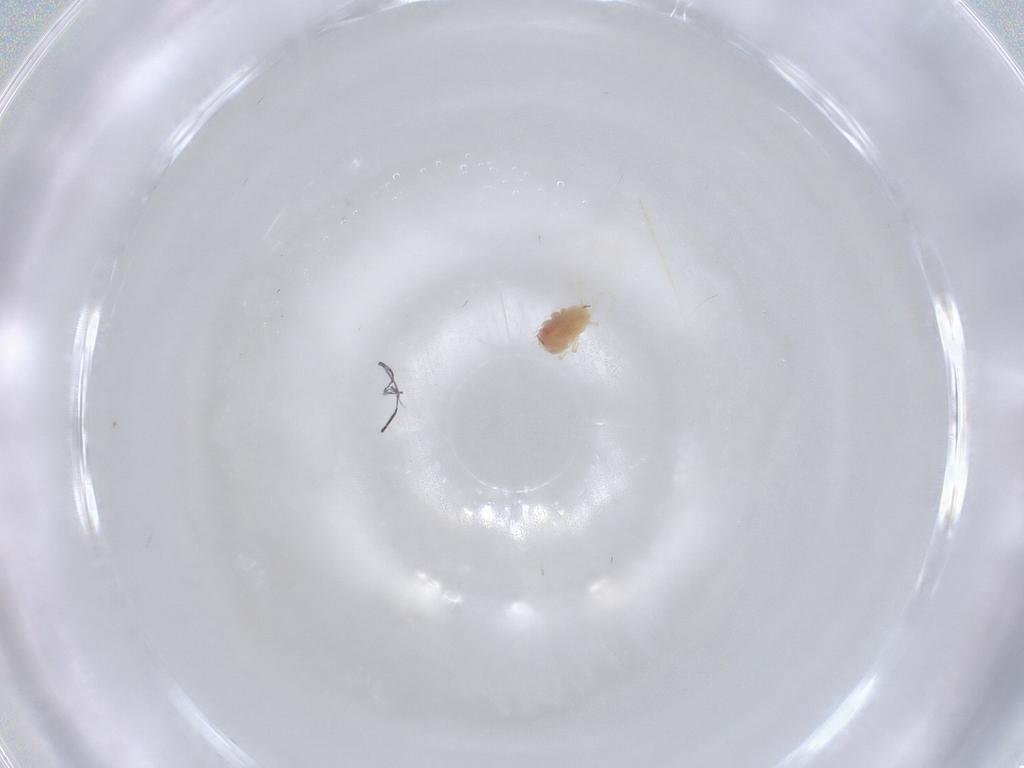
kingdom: Animalia
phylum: Arthropoda
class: Arachnida
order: Trombidiformes
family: Tetranychidae
